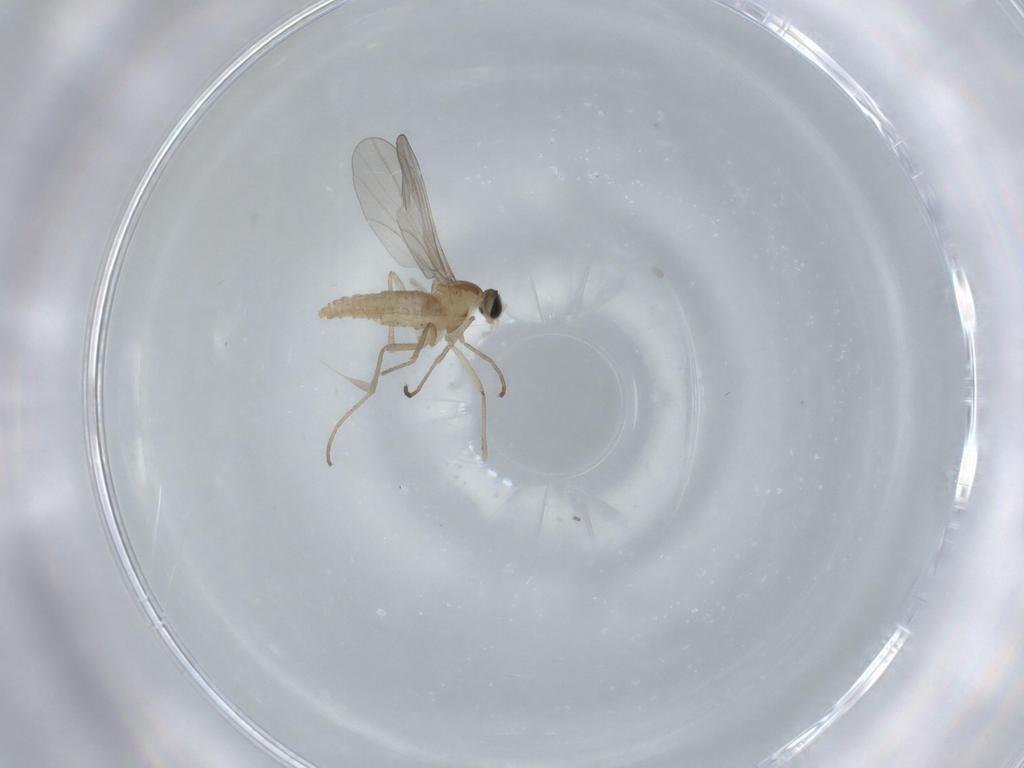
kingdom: Animalia
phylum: Arthropoda
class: Insecta
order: Diptera
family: Cecidomyiidae
